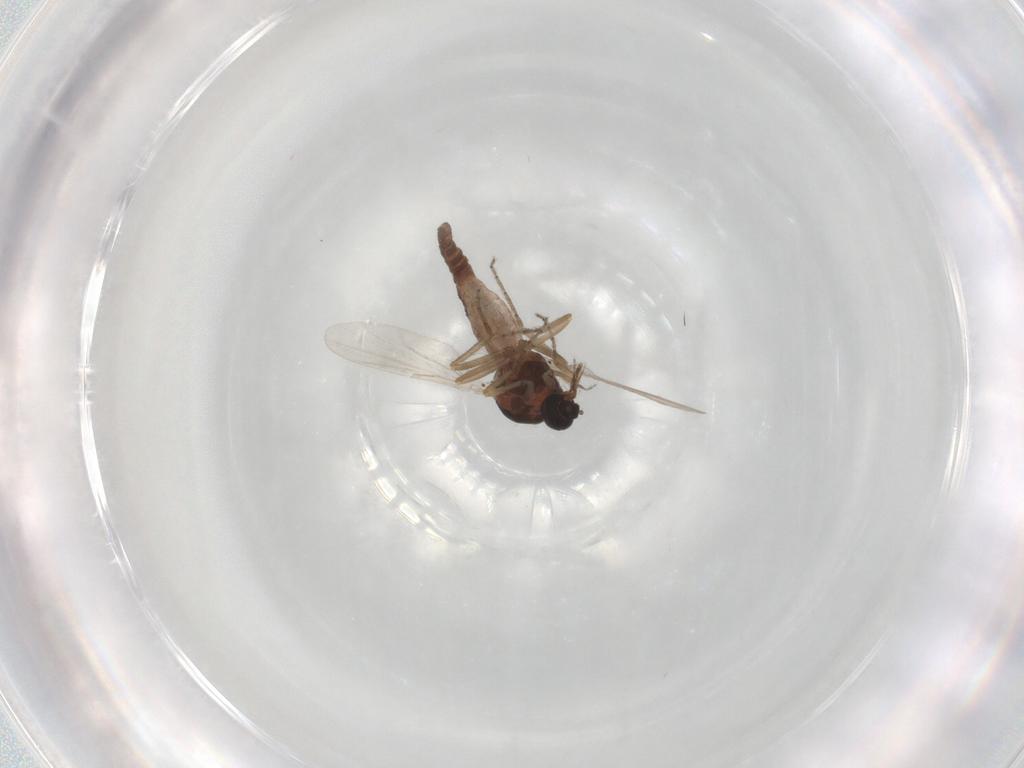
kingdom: Animalia
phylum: Arthropoda
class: Insecta
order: Diptera
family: Ceratopogonidae
